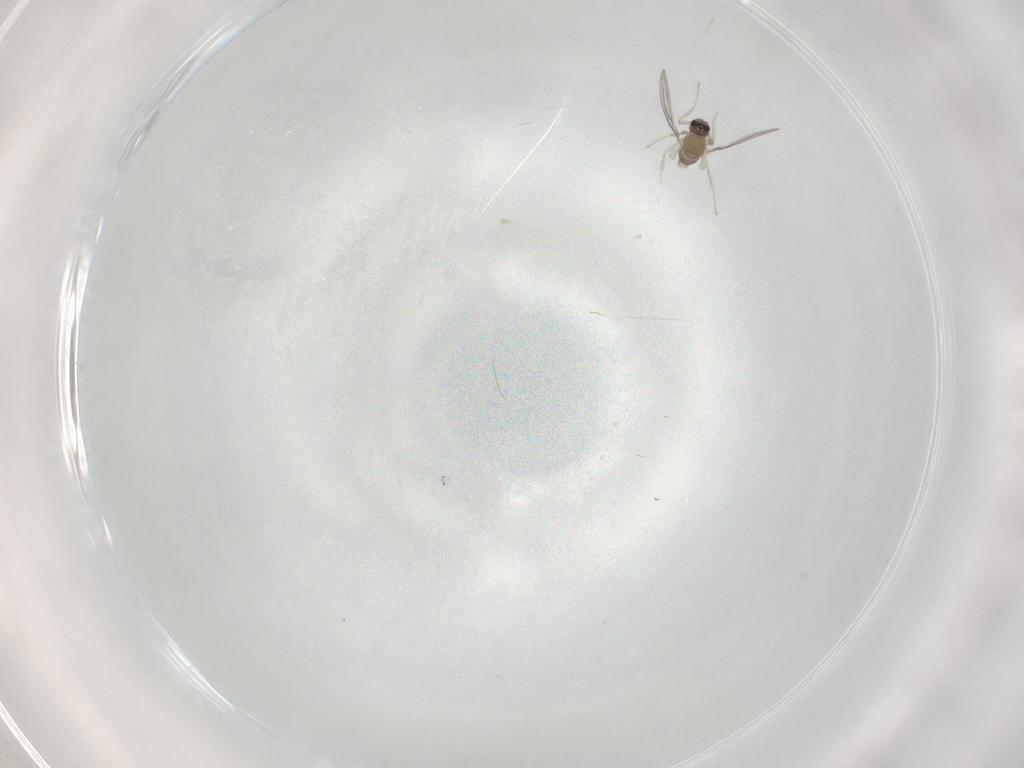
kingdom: Animalia
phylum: Arthropoda
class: Insecta
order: Diptera
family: Cecidomyiidae
